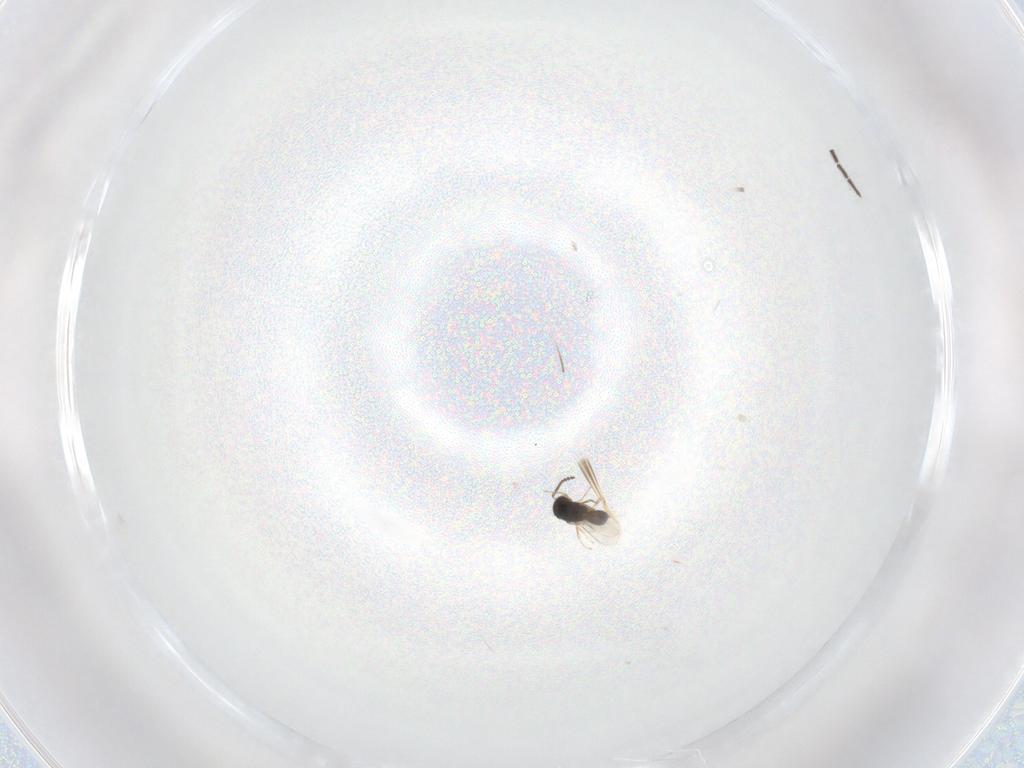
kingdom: Animalia
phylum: Arthropoda
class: Insecta
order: Hymenoptera
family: Scelionidae
